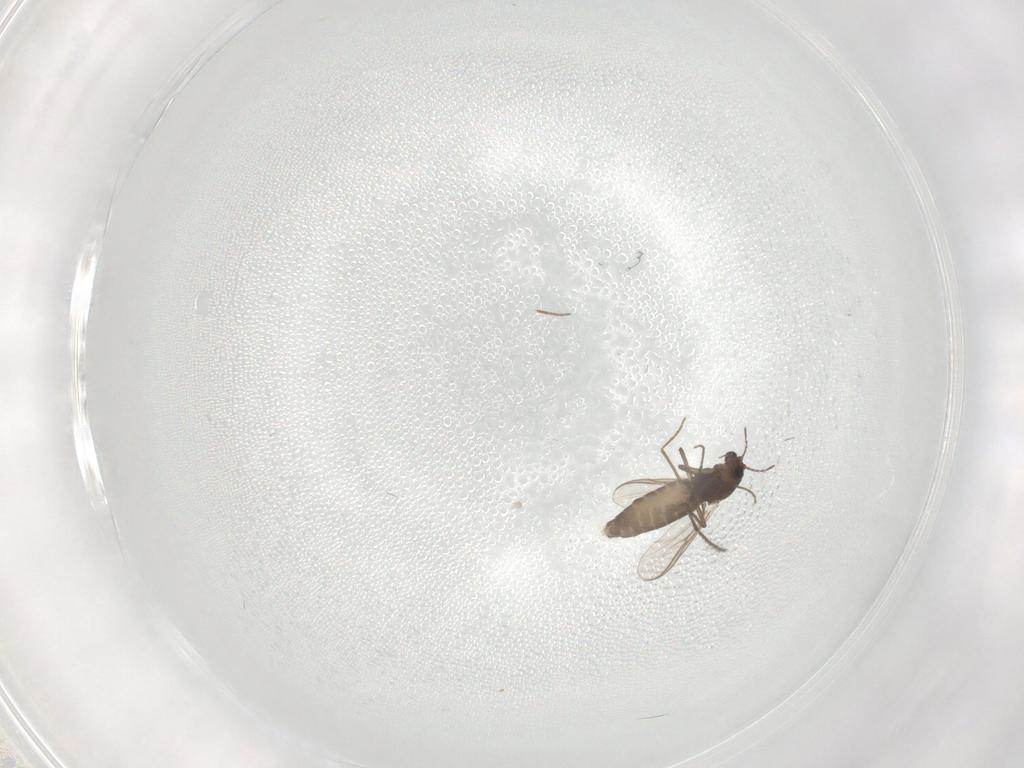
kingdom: Animalia
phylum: Arthropoda
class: Insecta
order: Diptera
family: Chironomidae
